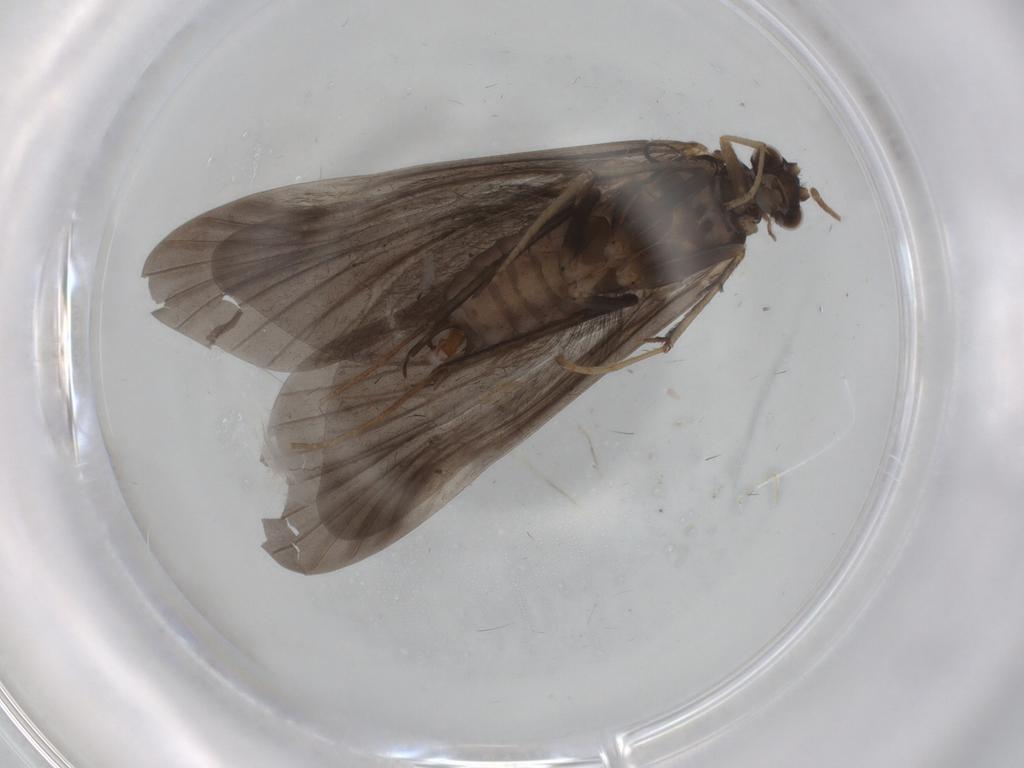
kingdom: Animalia
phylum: Arthropoda
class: Insecta
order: Trichoptera
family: Hydropsychidae
